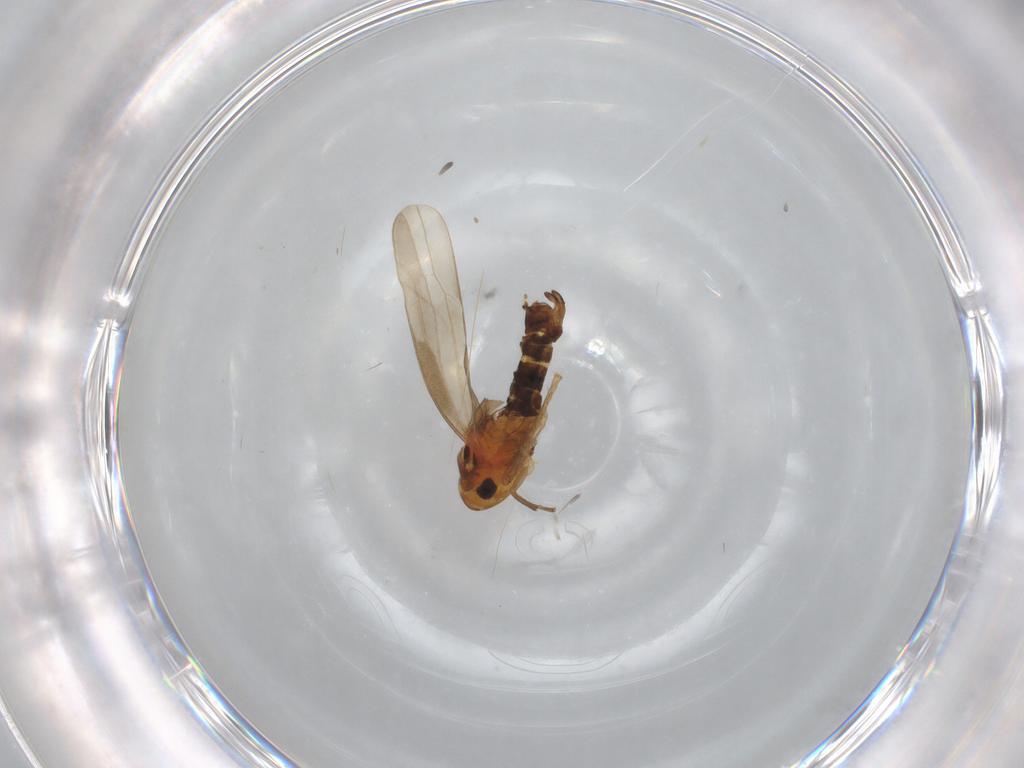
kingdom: Animalia
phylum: Arthropoda
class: Insecta
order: Hemiptera
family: Cicadellidae
